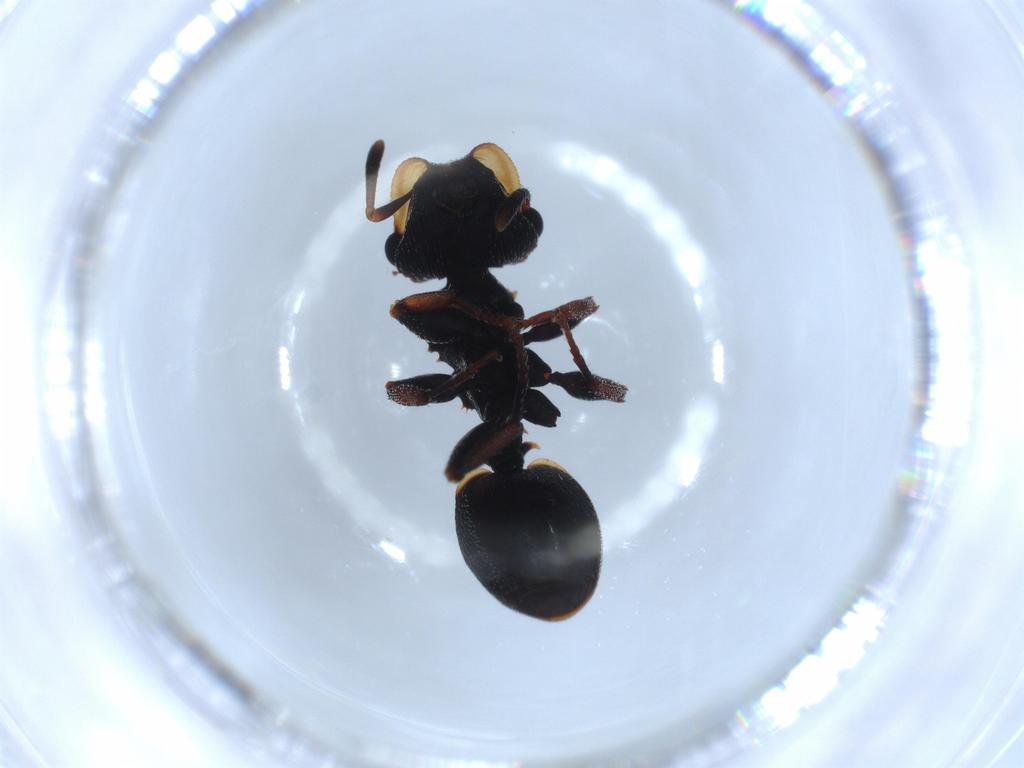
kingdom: Animalia
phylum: Arthropoda
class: Insecta
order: Hymenoptera
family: Formicidae
